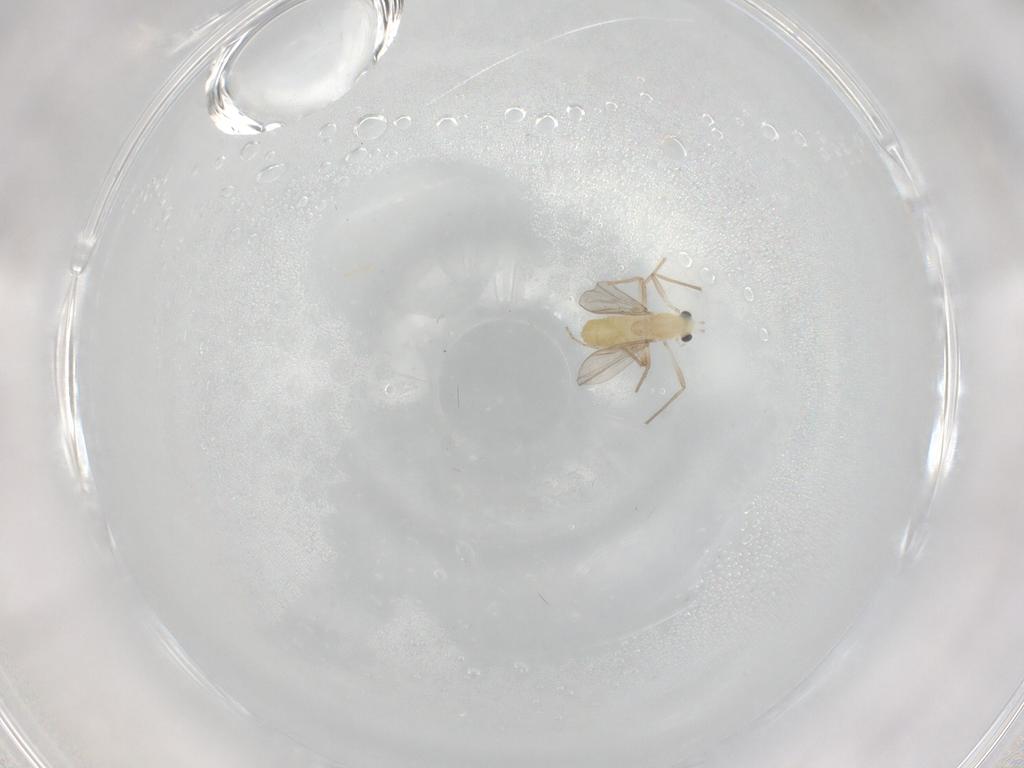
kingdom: Animalia
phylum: Arthropoda
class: Insecta
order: Diptera
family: Chironomidae
